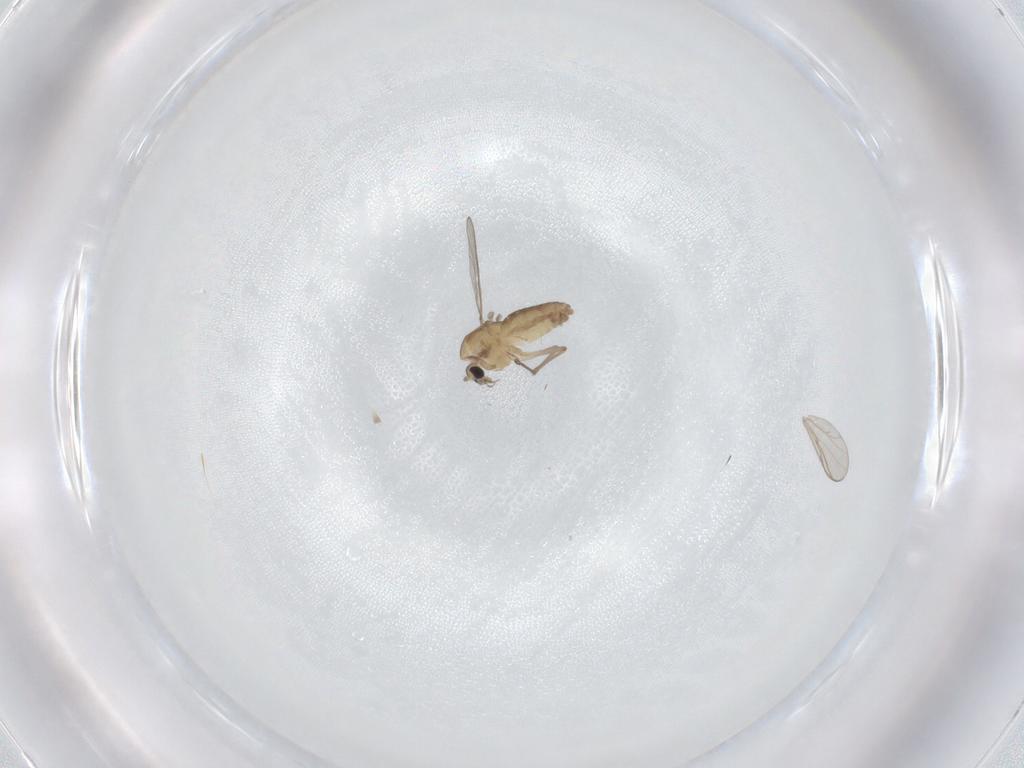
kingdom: Animalia
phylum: Arthropoda
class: Insecta
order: Diptera
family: Chironomidae
